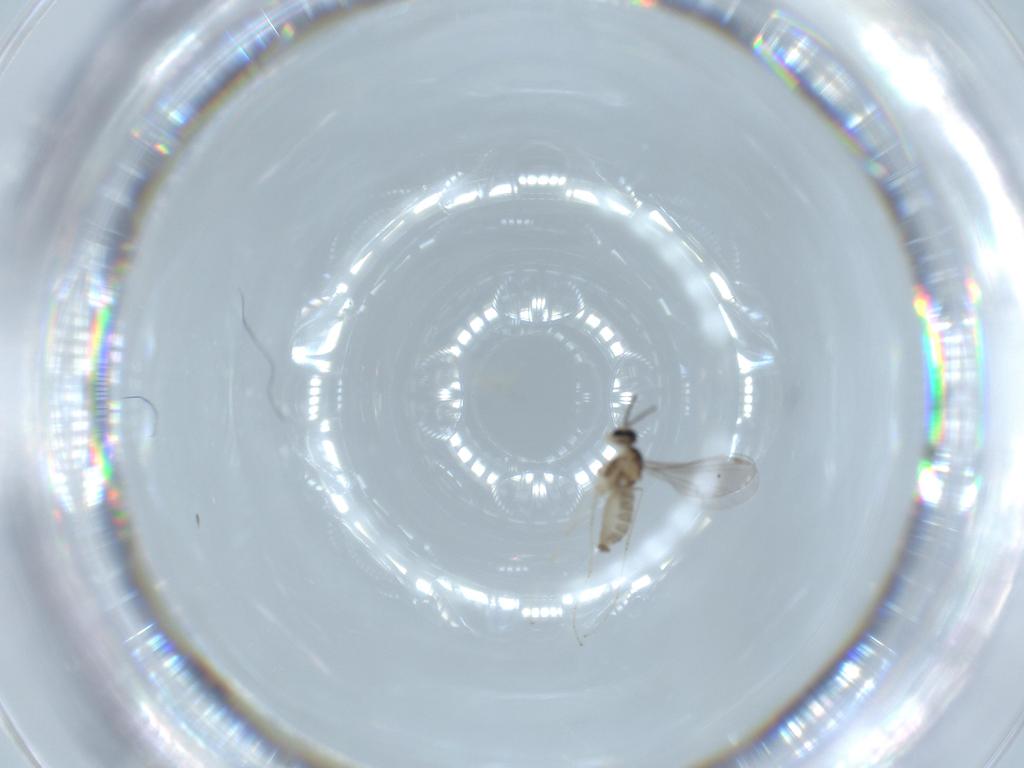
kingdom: Animalia
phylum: Arthropoda
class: Insecta
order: Diptera
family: Cecidomyiidae
